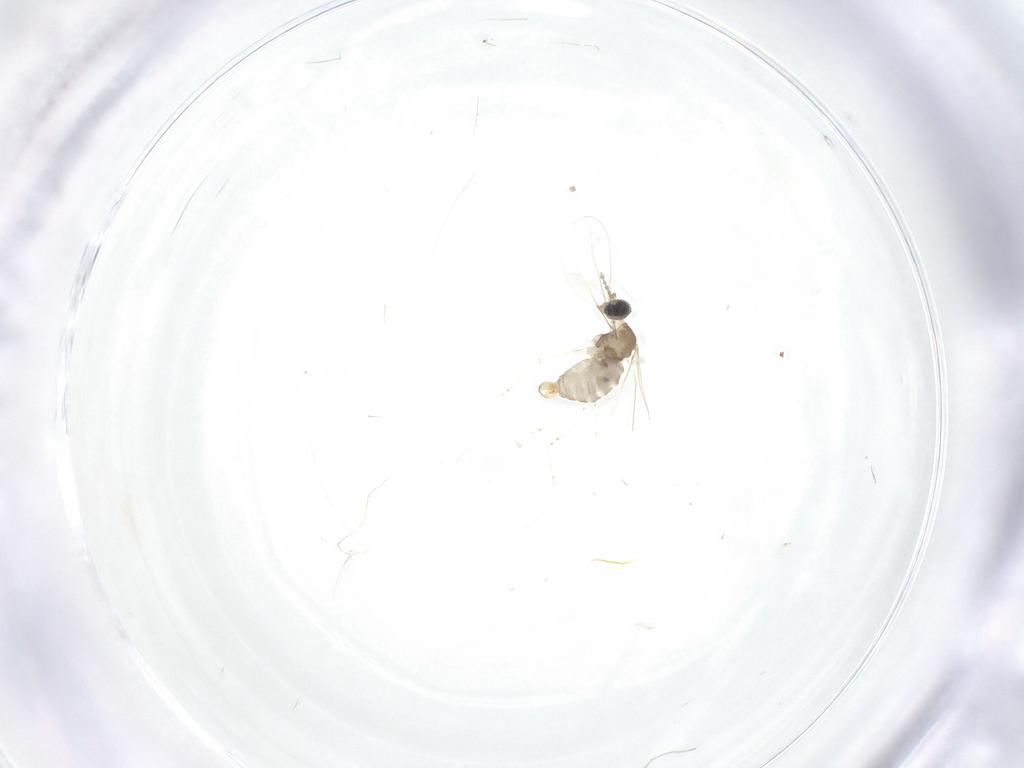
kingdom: Animalia
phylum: Arthropoda
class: Insecta
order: Diptera
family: Cecidomyiidae
